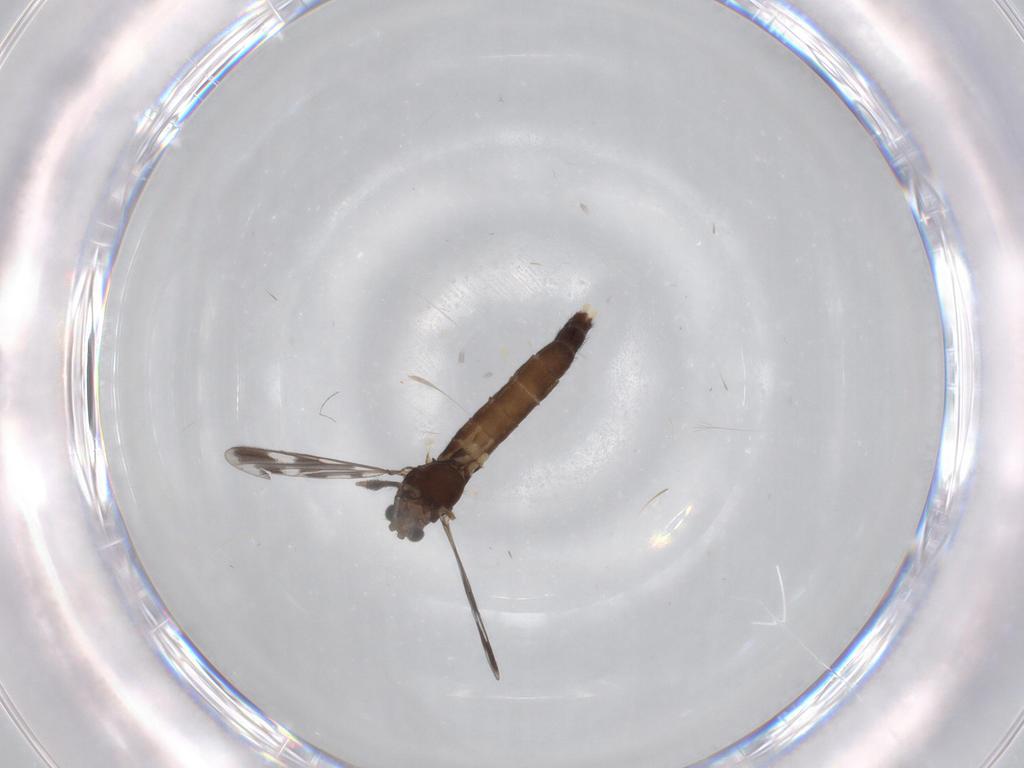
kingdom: Animalia
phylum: Arthropoda
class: Insecta
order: Diptera
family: Chironomidae
